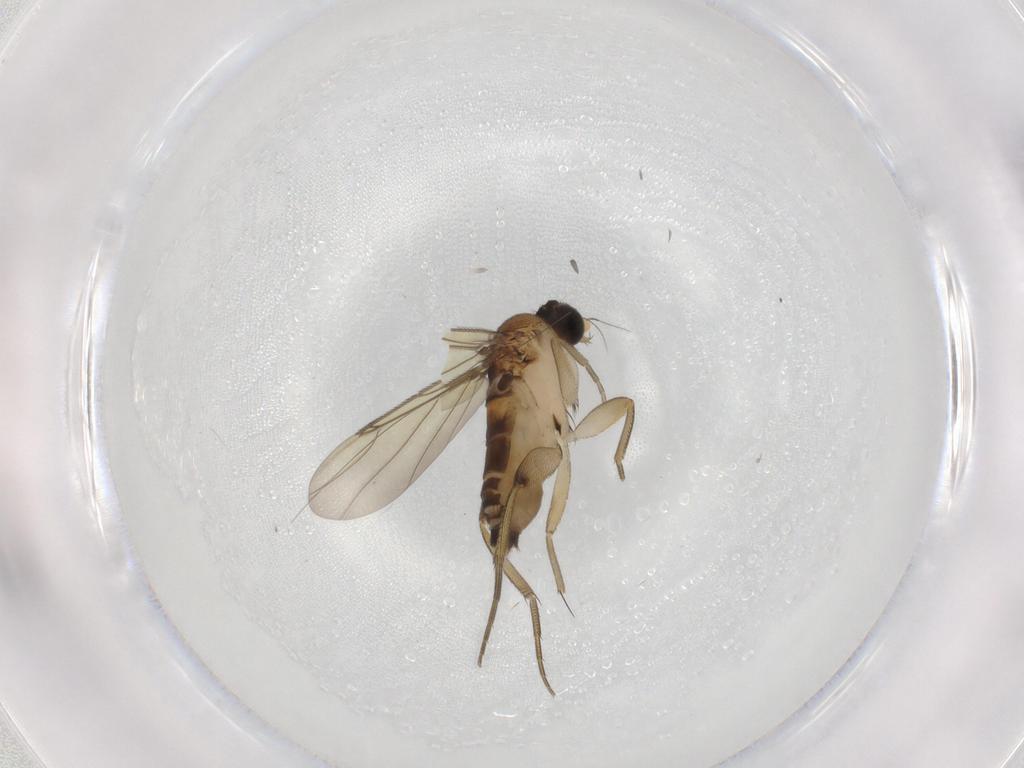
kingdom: Animalia
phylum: Arthropoda
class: Insecta
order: Diptera
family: Phoridae
